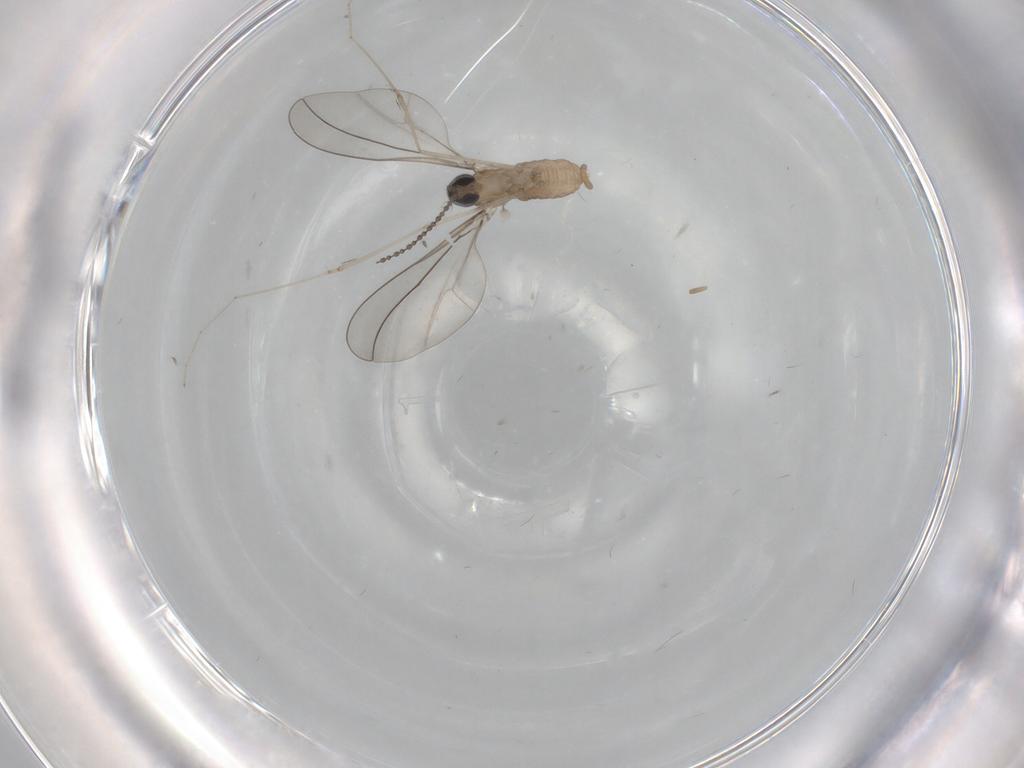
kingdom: Animalia
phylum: Arthropoda
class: Insecta
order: Diptera
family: Cecidomyiidae
